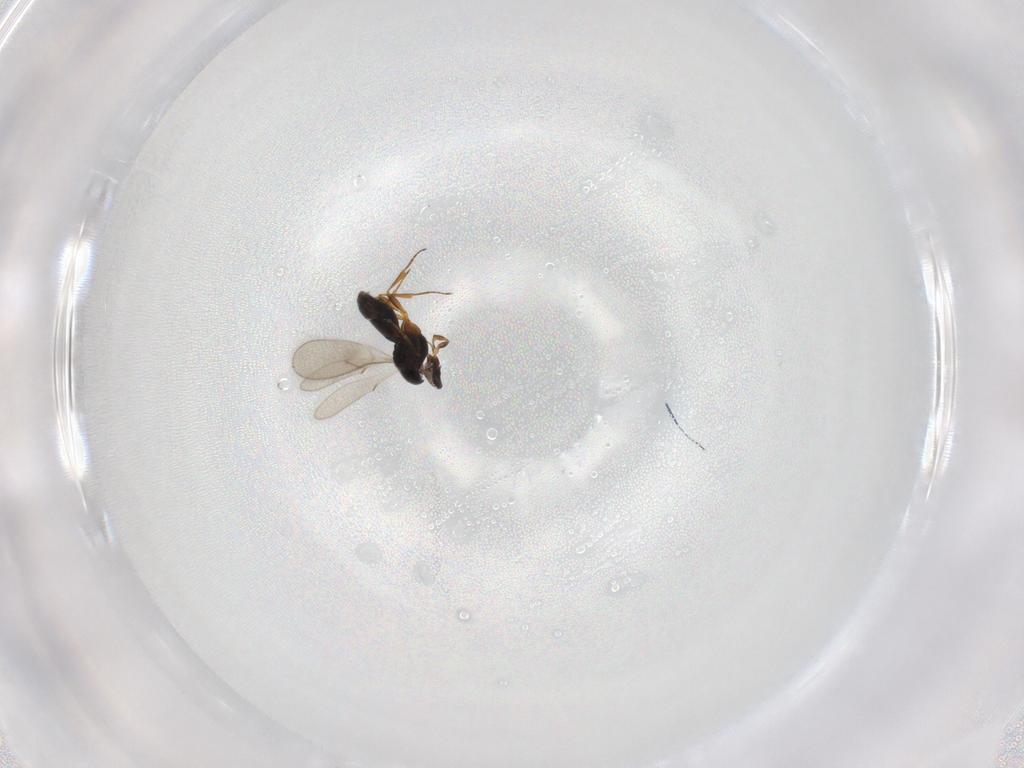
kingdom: Animalia
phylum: Arthropoda
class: Insecta
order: Hymenoptera
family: Scelionidae
